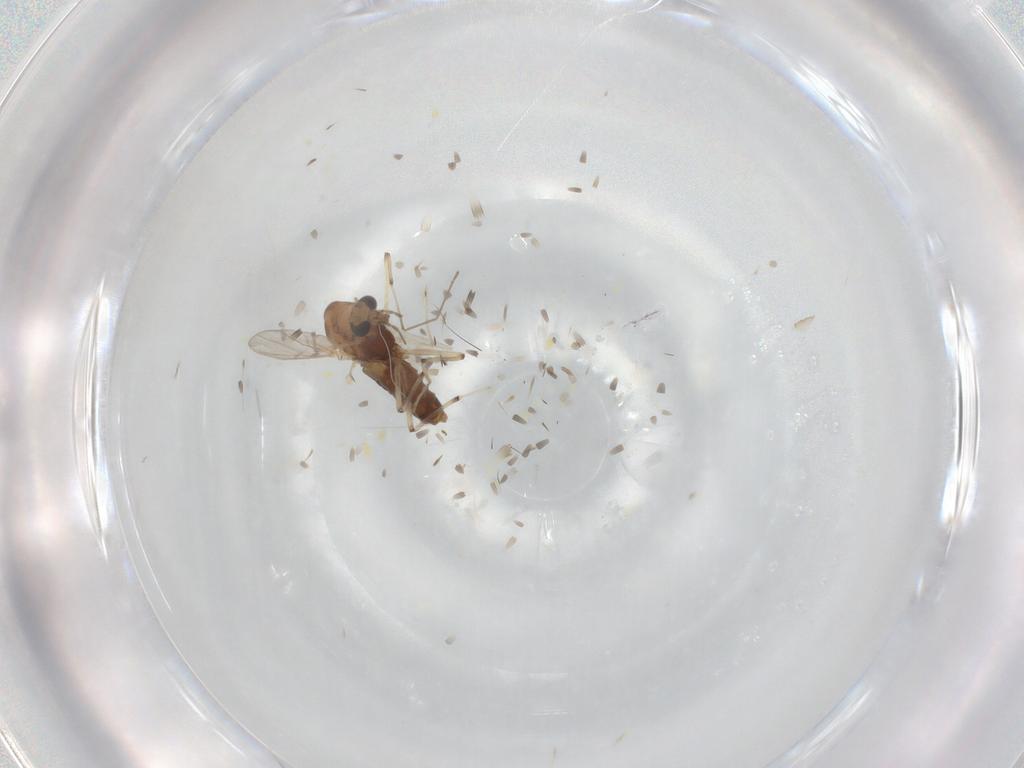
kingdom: Animalia
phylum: Arthropoda
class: Insecta
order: Diptera
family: Chironomidae
